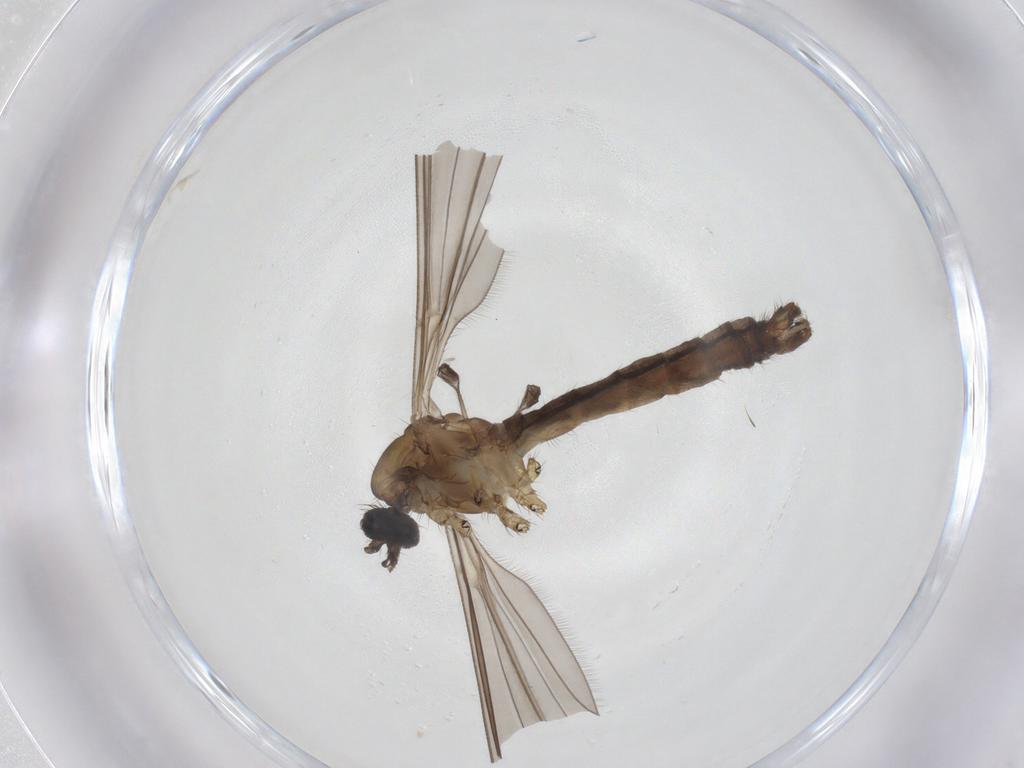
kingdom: Animalia
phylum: Arthropoda
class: Insecta
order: Diptera
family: Limoniidae
